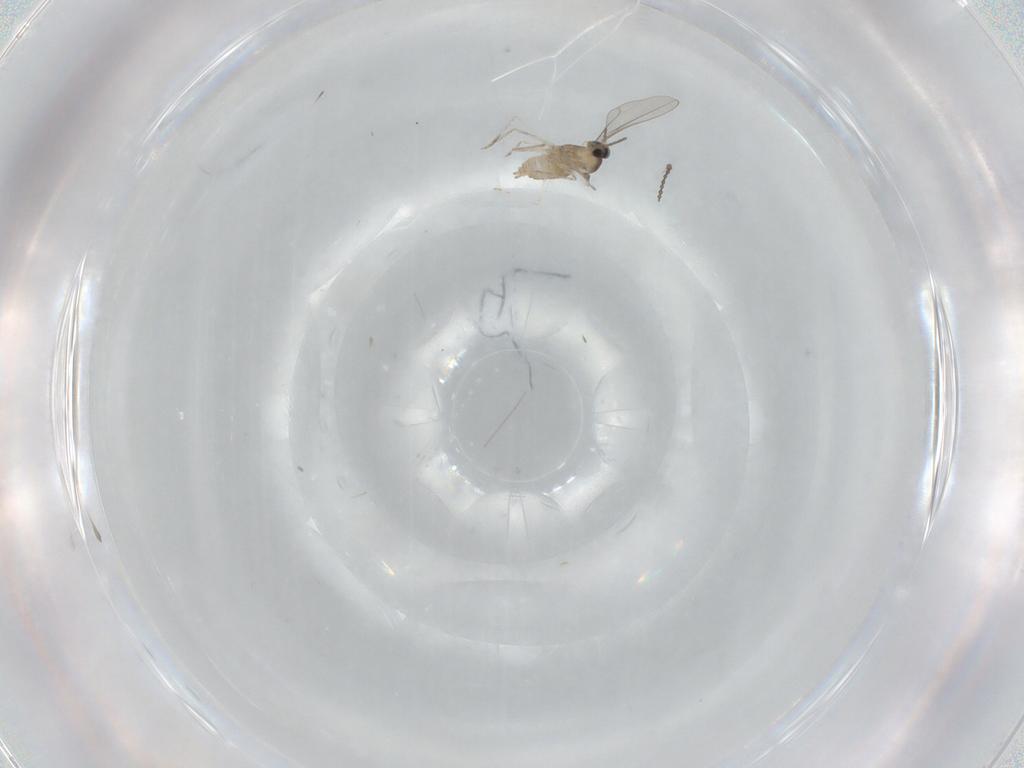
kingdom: Animalia
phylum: Arthropoda
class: Insecta
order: Diptera
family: Cecidomyiidae
